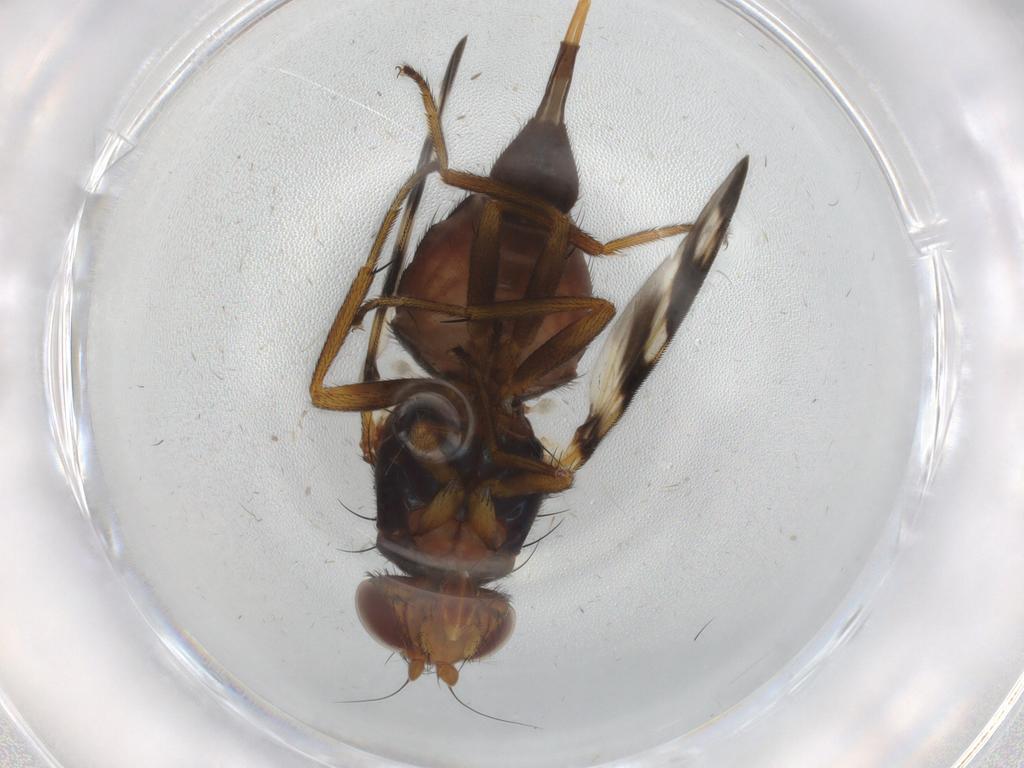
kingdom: Animalia
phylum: Arthropoda
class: Insecta
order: Diptera
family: Ulidiidae
